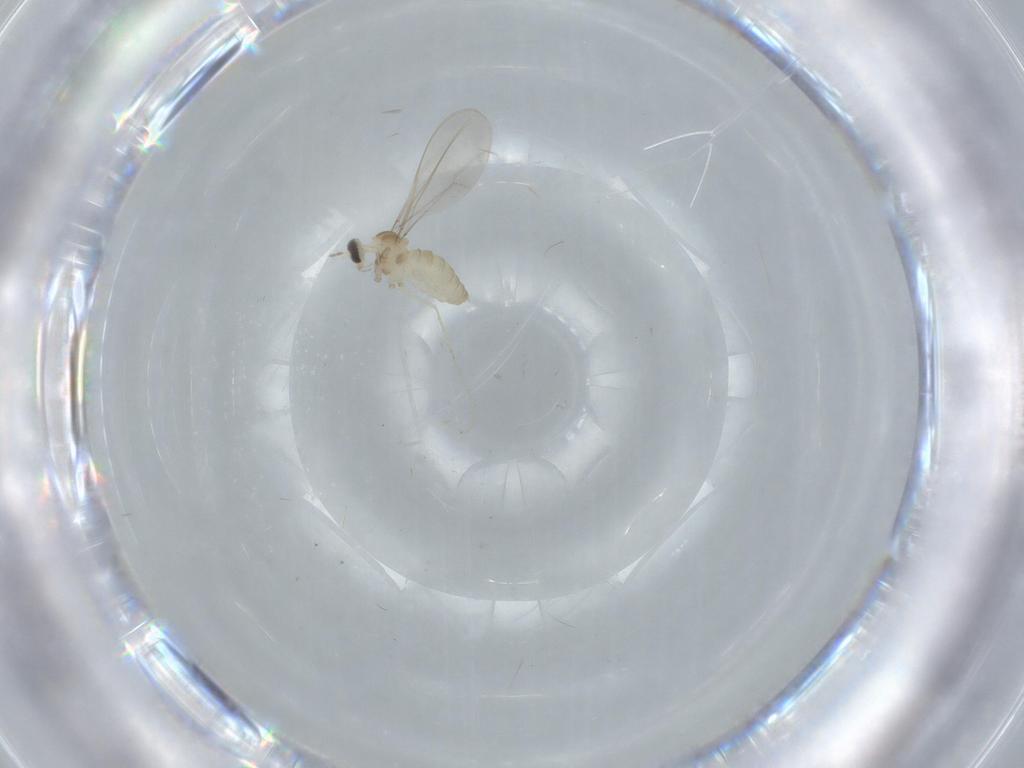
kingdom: Animalia
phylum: Arthropoda
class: Insecta
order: Diptera
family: Cecidomyiidae
